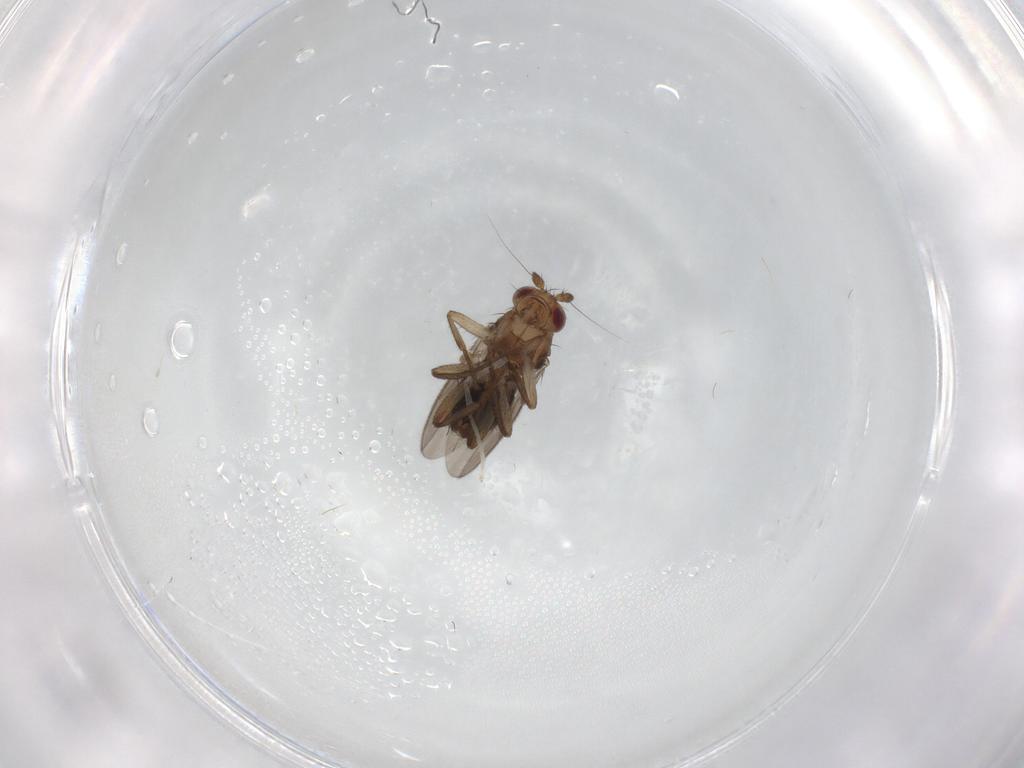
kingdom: Animalia
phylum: Arthropoda
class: Insecta
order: Diptera
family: Sphaeroceridae
